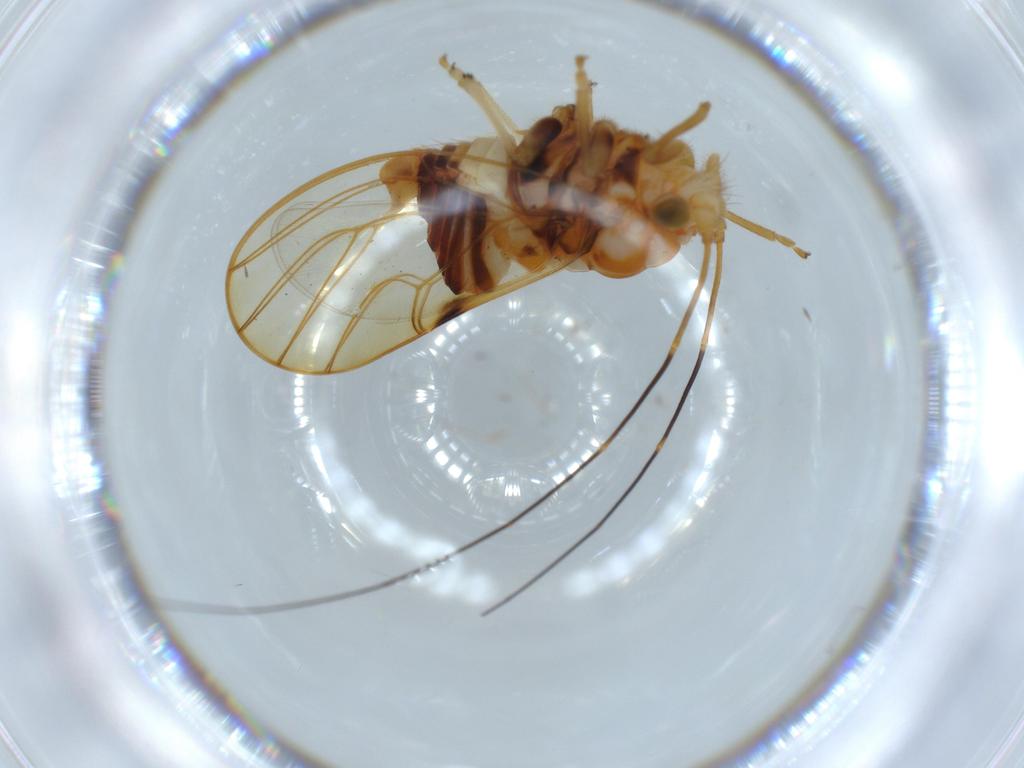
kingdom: Animalia
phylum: Arthropoda
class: Insecta
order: Hemiptera
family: Psyllidae
